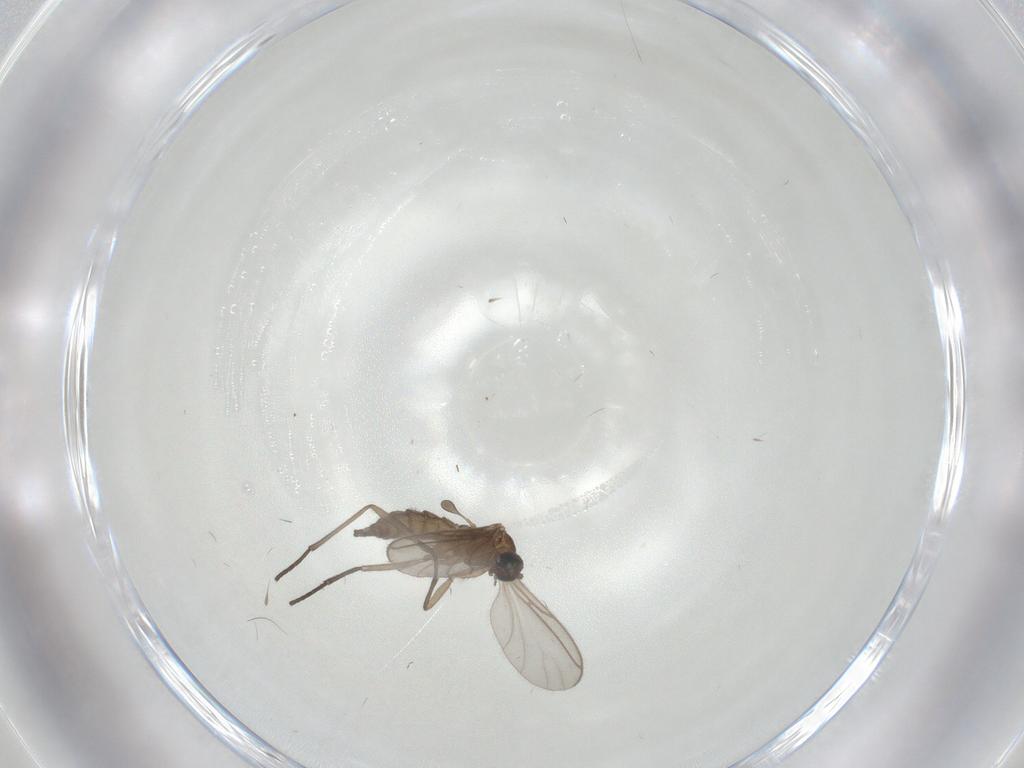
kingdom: Animalia
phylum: Arthropoda
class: Insecta
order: Diptera
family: Sciaridae
